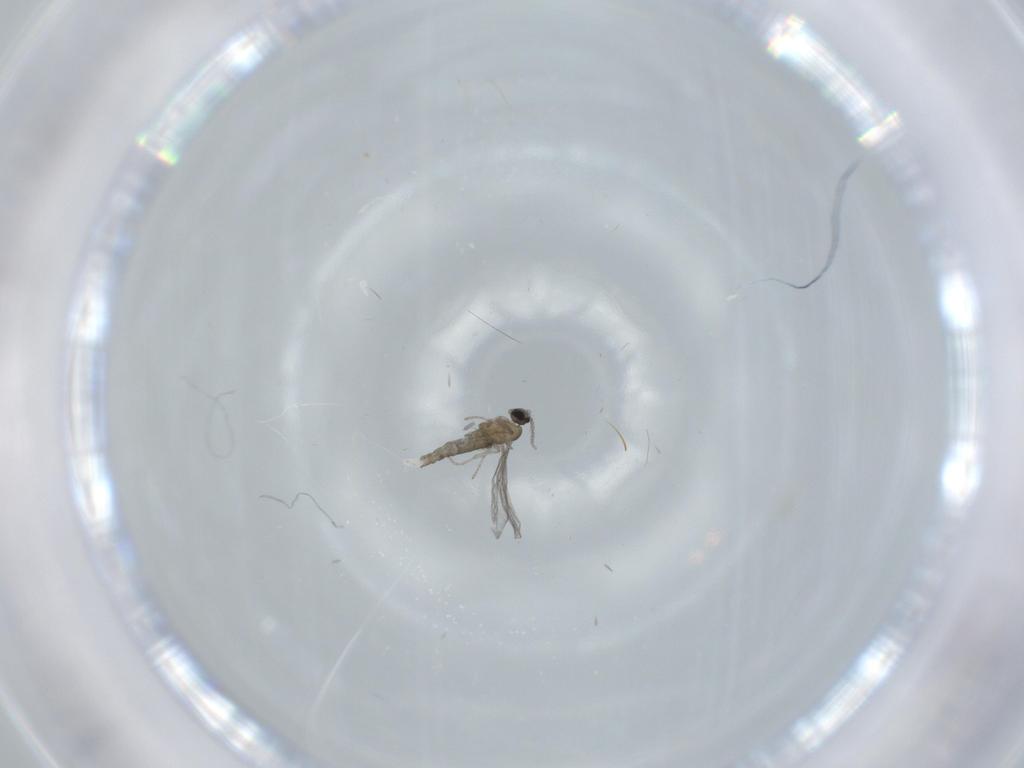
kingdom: Animalia
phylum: Arthropoda
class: Insecta
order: Diptera
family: Cecidomyiidae
